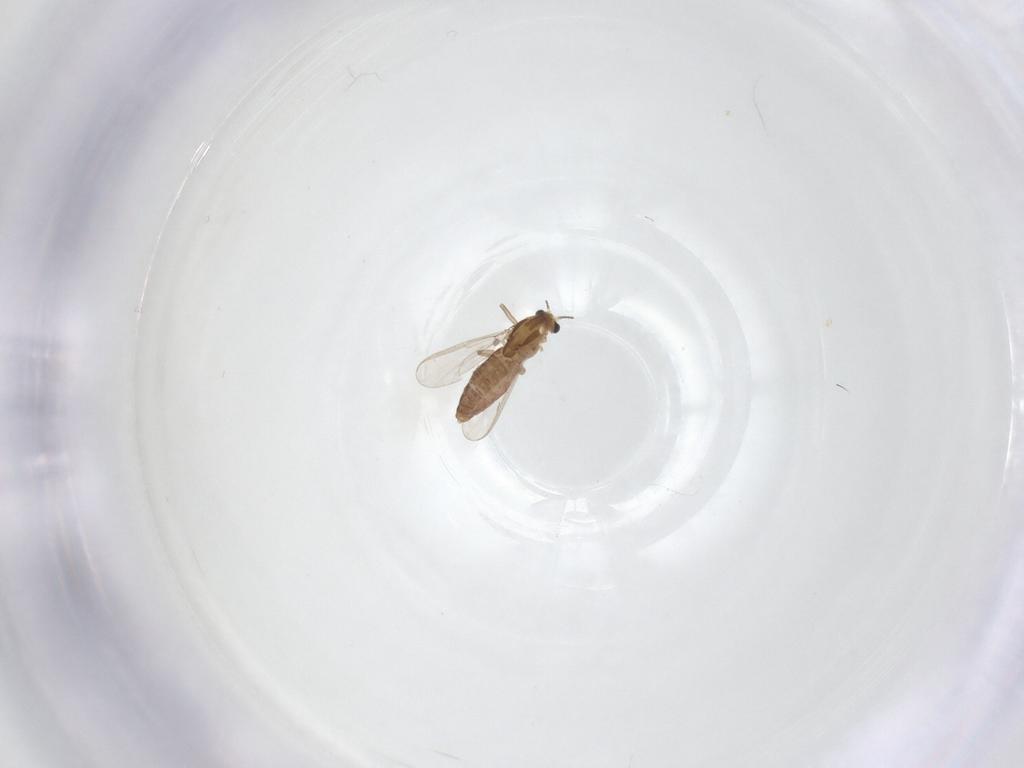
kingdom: Animalia
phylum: Arthropoda
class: Insecta
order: Diptera
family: Chironomidae
